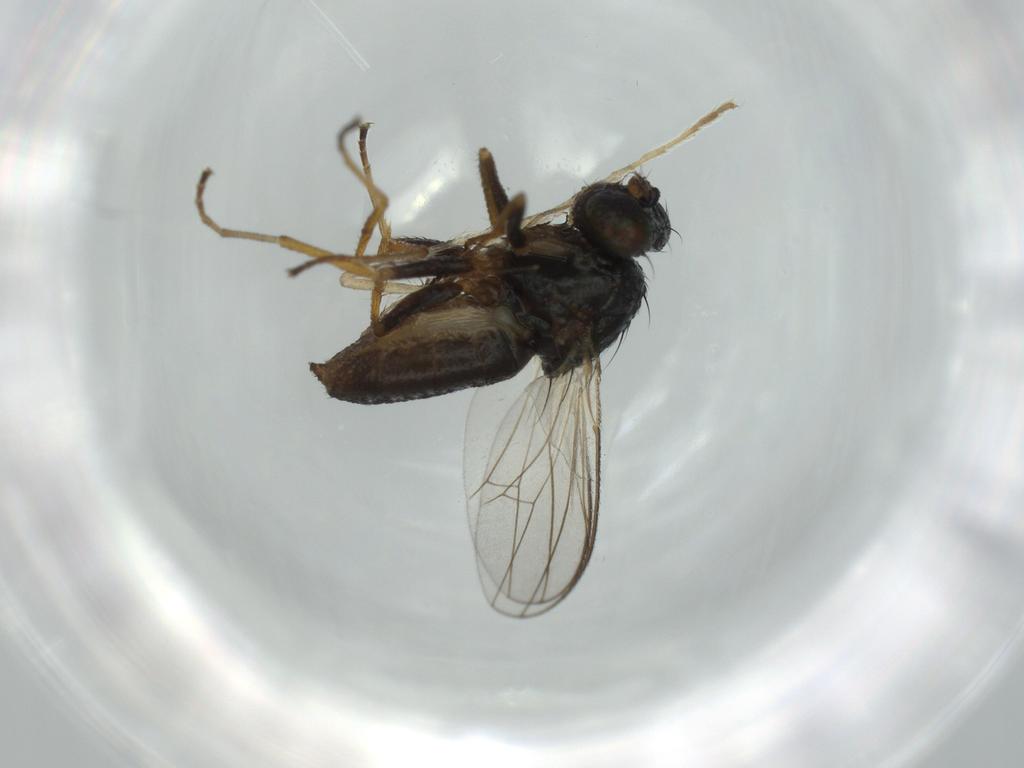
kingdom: Animalia
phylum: Arthropoda
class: Insecta
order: Diptera
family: Ephydridae
